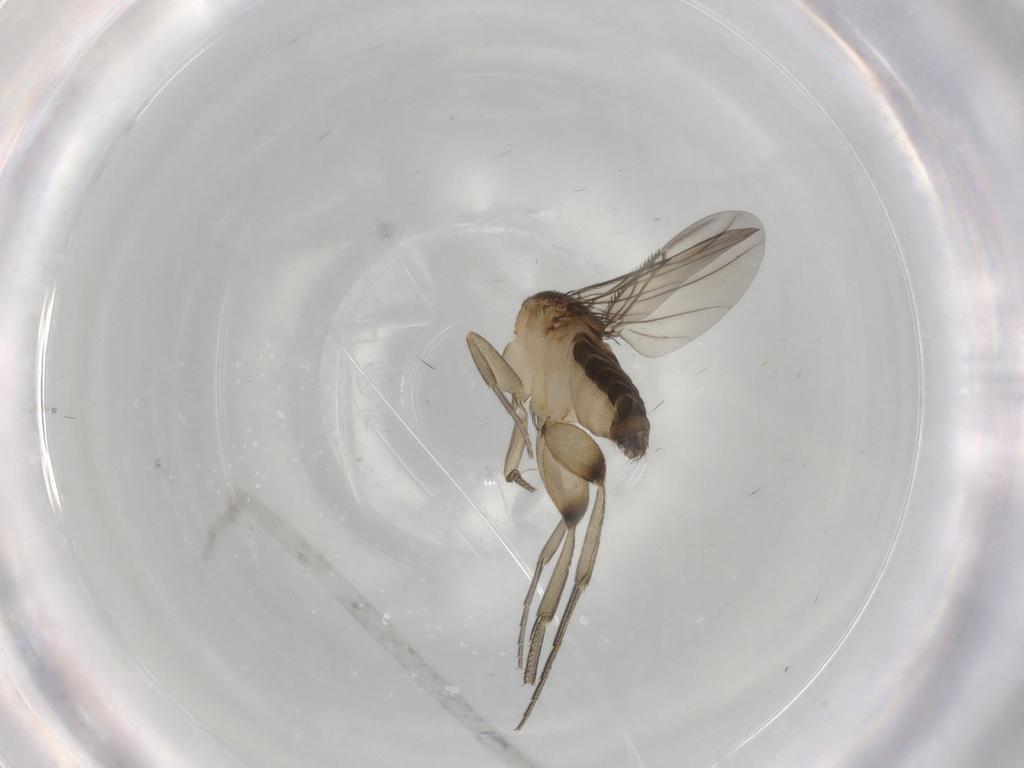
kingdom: Animalia
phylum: Arthropoda
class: Insecta
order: Diptera
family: Phoridae
